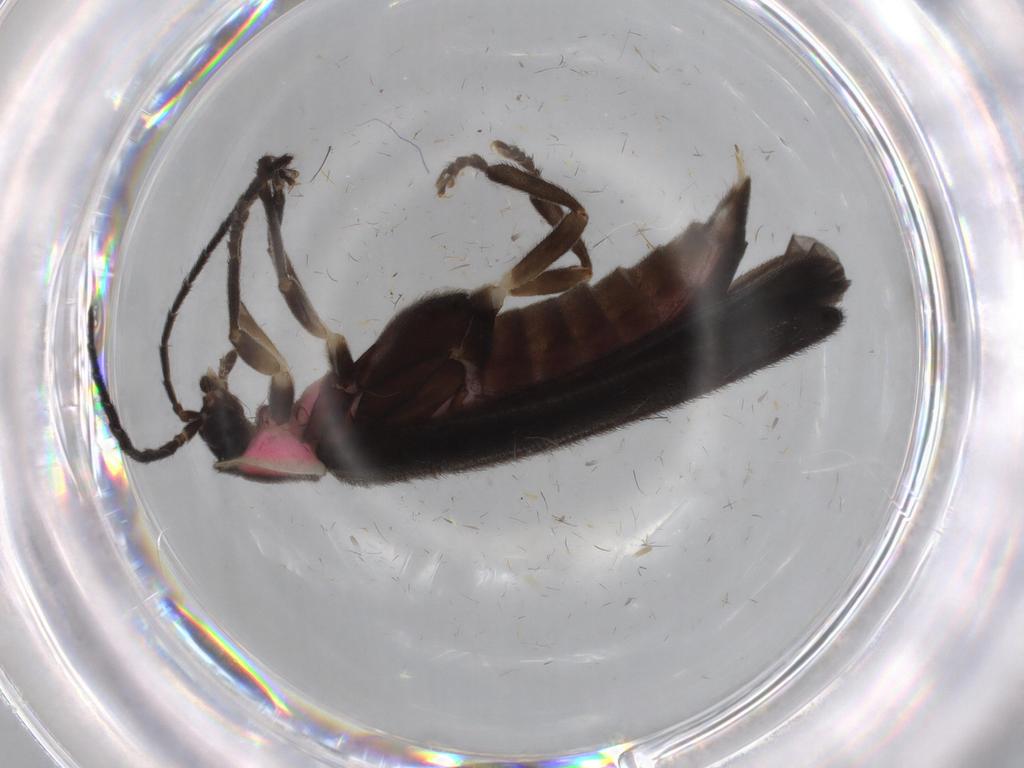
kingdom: Animalia
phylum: Arthropoda
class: Insecta
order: Coleoptera
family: Lampyridae
